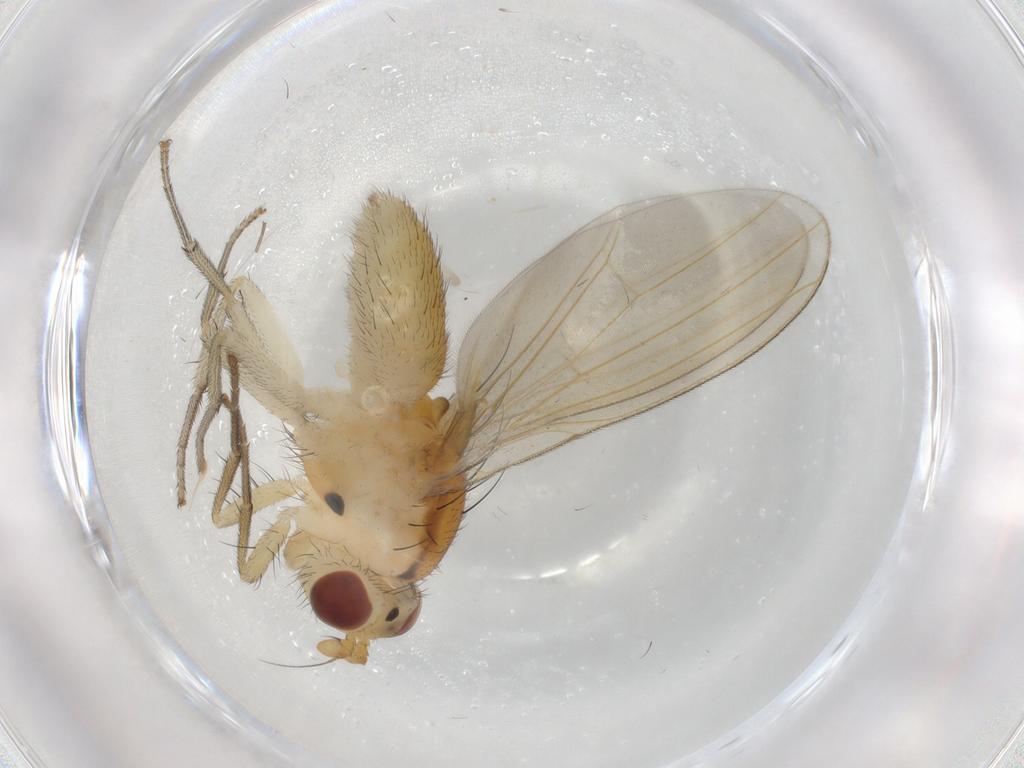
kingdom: Animalia
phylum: Arthropoda
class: Insecta
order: Diptera
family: Lauxaniidae
